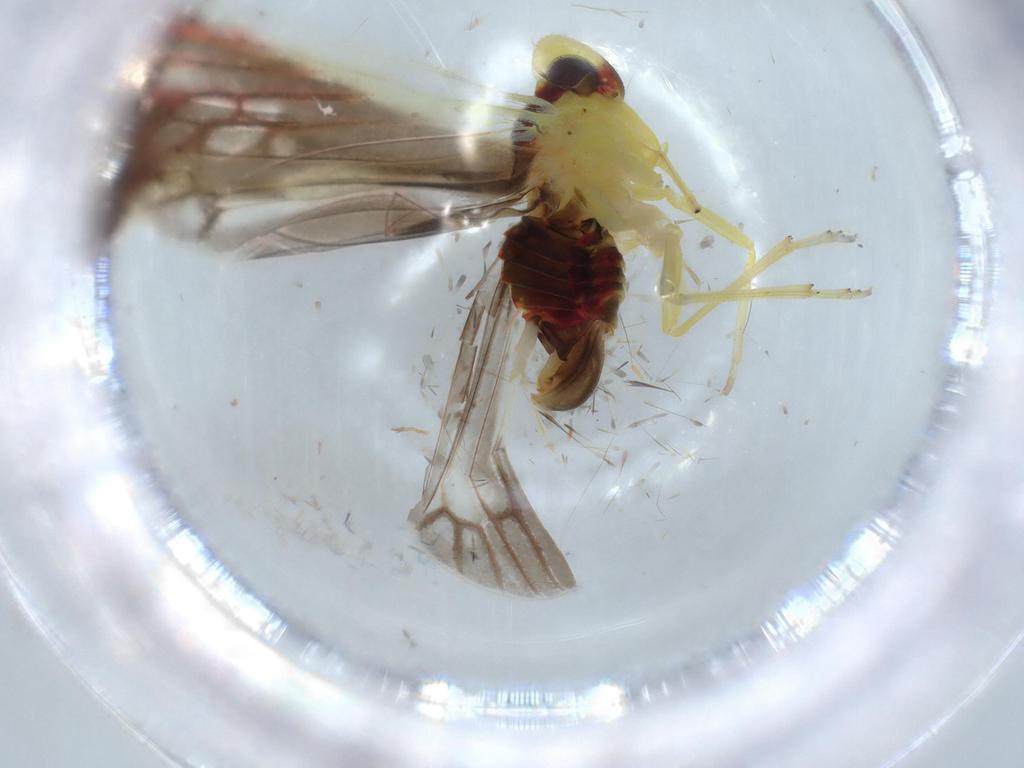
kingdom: Animalia
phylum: Arthropoda
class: Insecta
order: Hemiptera
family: Derbidae
